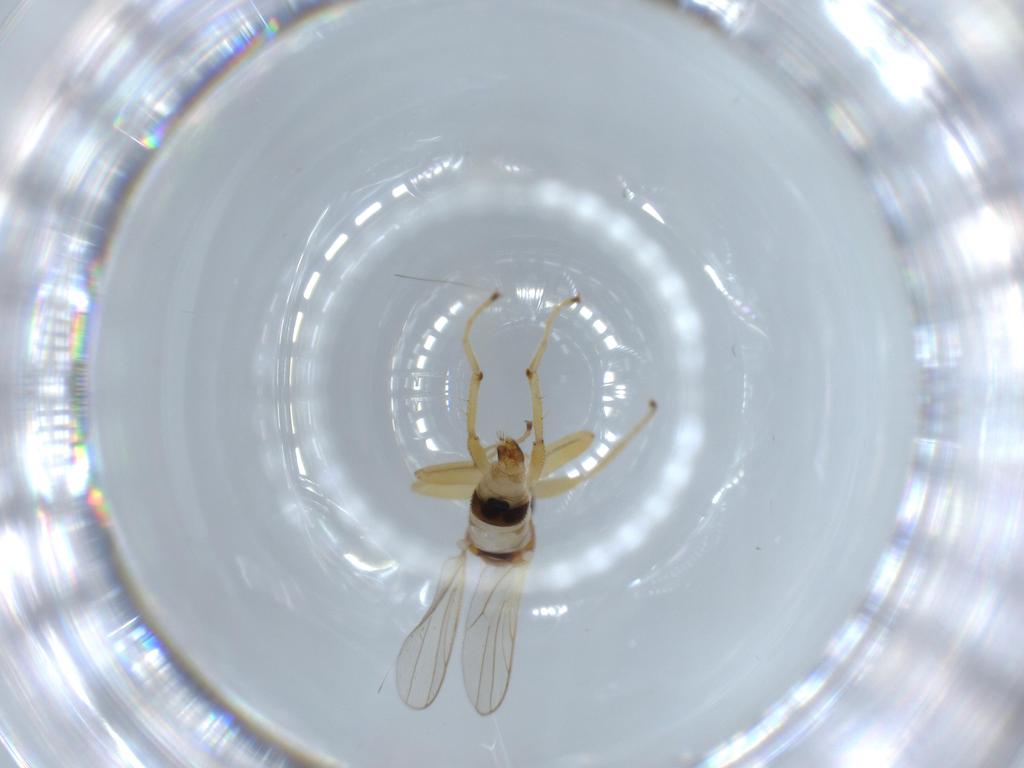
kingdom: Animalia
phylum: Arthropoda
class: Insecta
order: Diptera
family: Hybotidae
